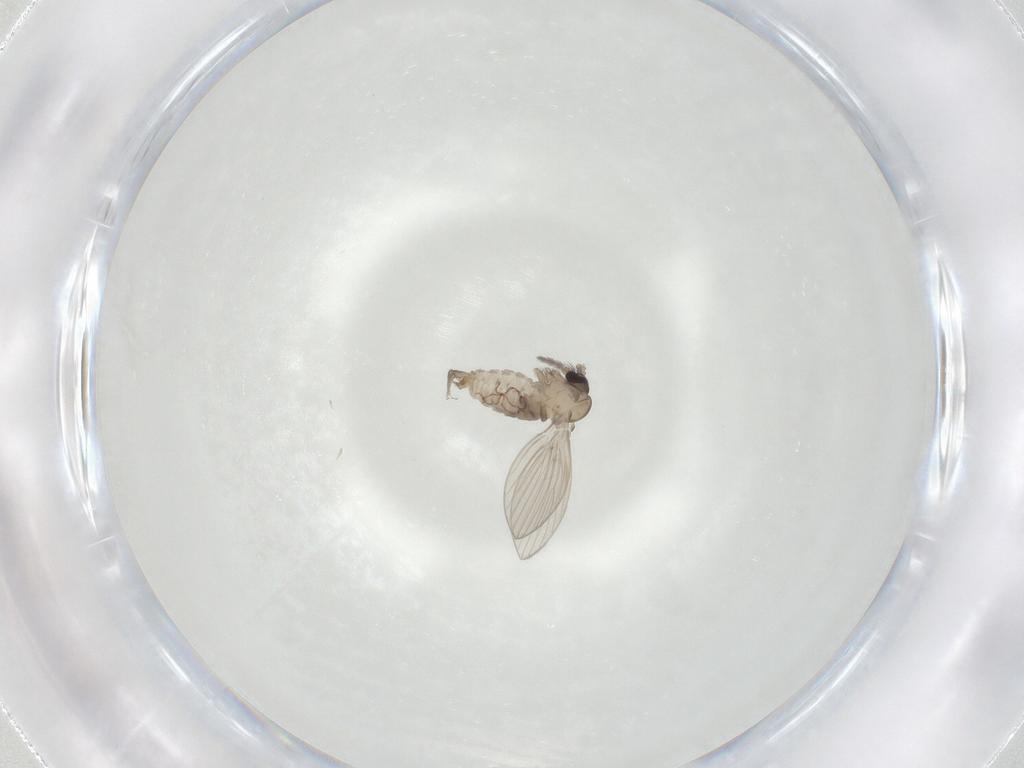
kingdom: Animalia
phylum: Arthropoda
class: Insecta
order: Diptera
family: Psychodidae
